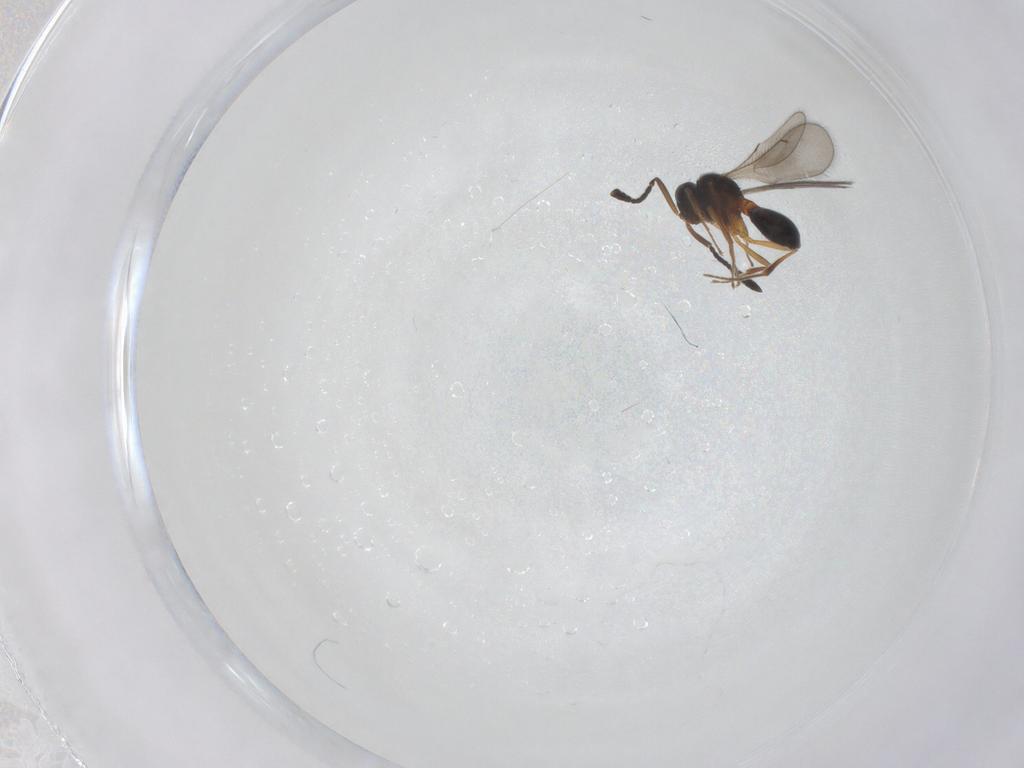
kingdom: Animalia
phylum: Arthropoda
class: Insecta
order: Hymenoptera
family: Scelionidae
